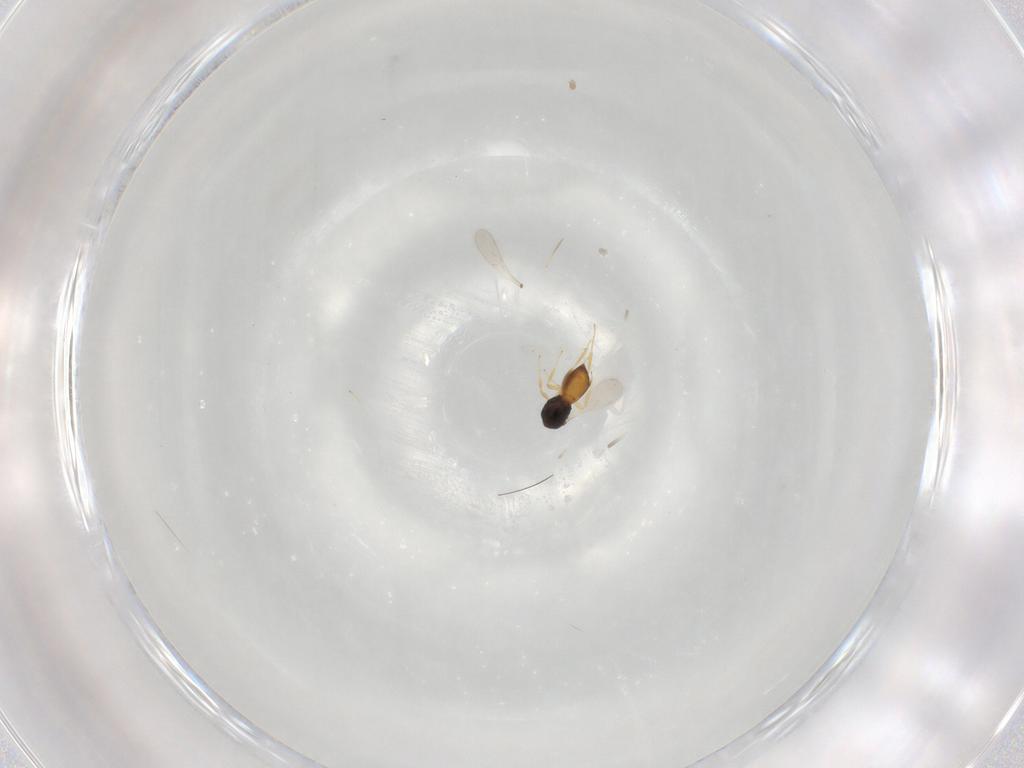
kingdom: Animalia
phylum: Arthropoda
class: Insecta
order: Hymenoptera
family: Scelionidae
